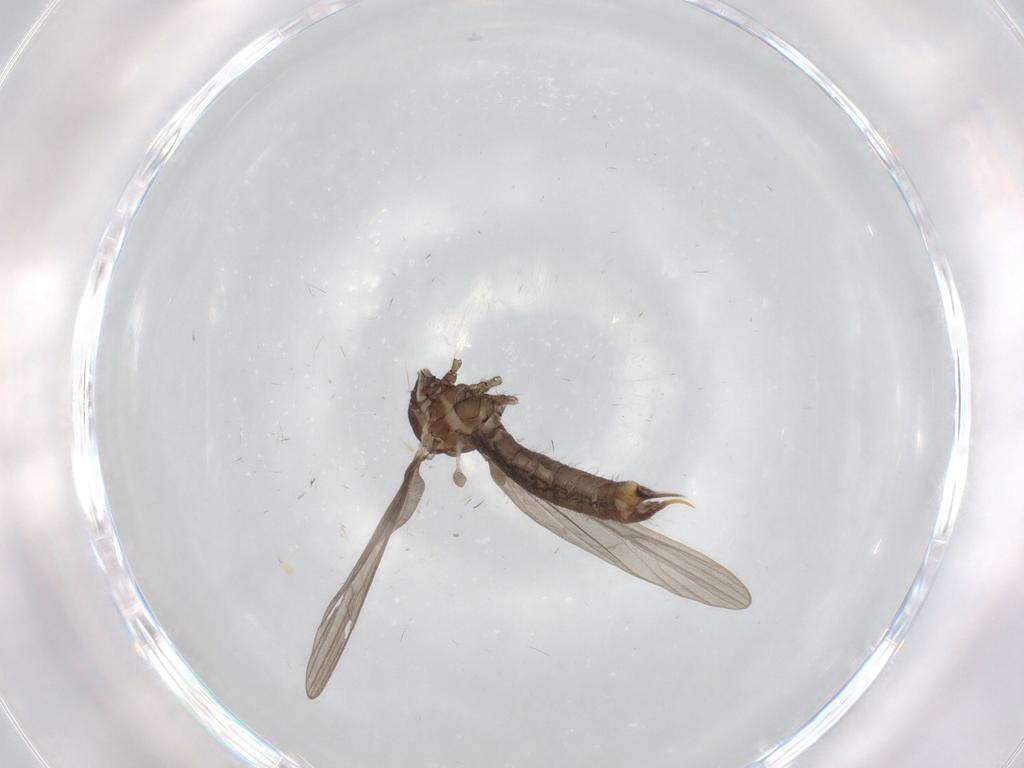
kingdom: Animalia
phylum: Arthropoda
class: Insecta
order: Diptera
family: Limoniidae
